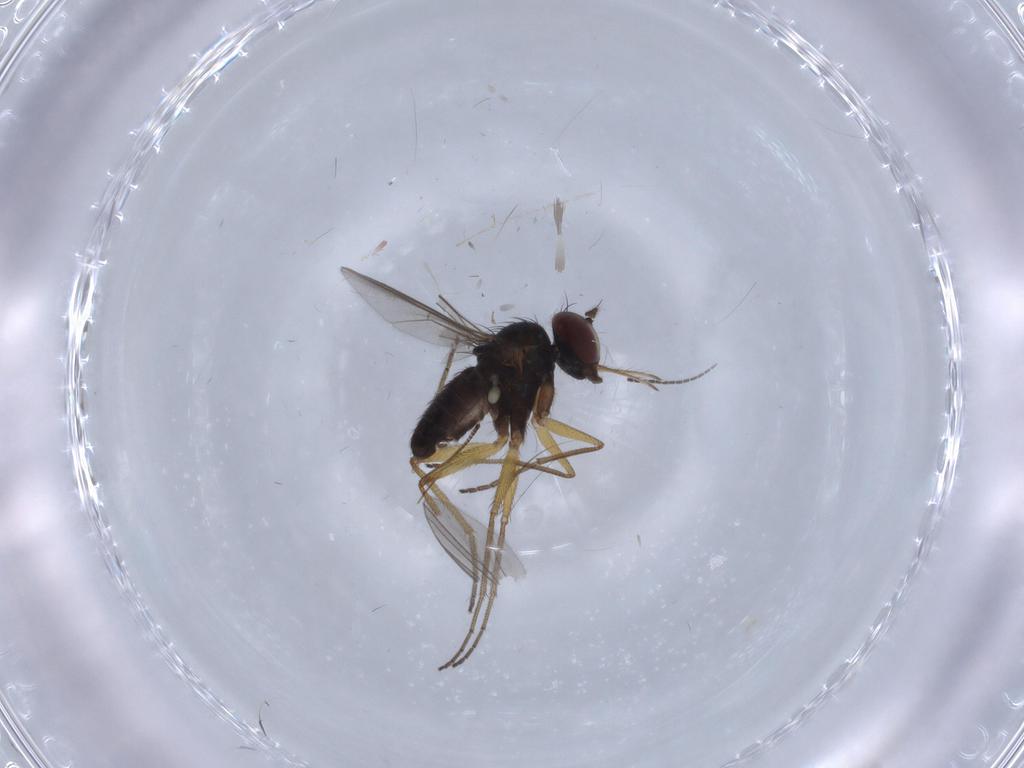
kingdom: Animalia
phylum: Arthropoda
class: Insecta
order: Diptera
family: Dolichopodidae
